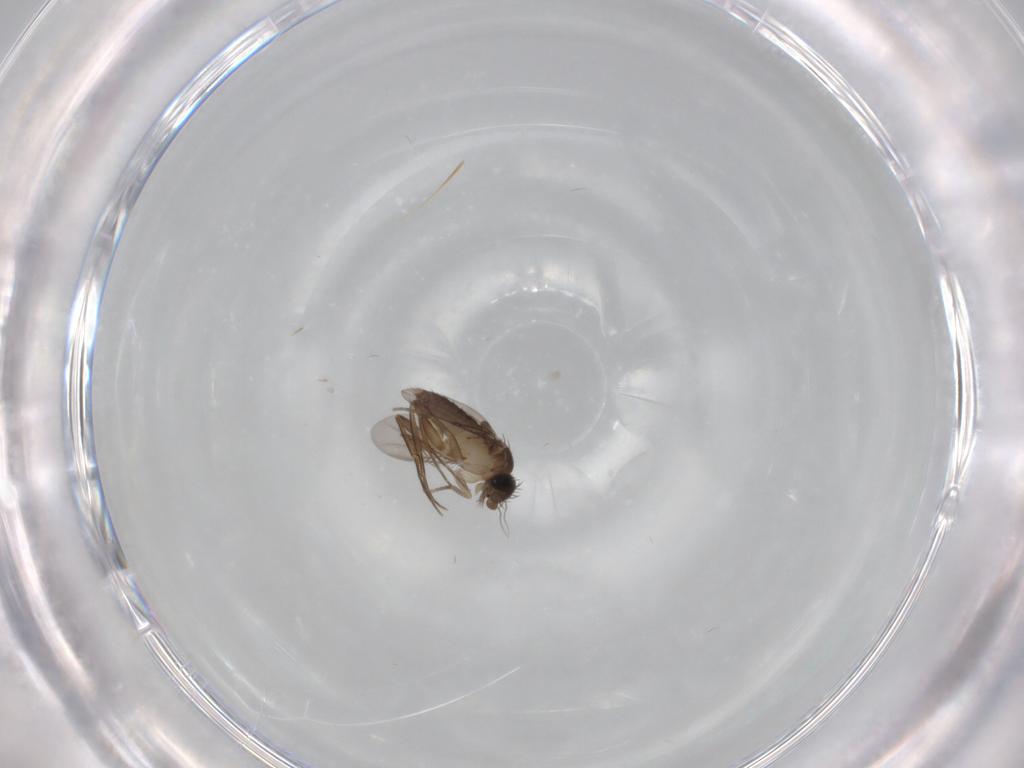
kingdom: Animalia
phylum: Arthropoda
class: Insecta
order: Diptera
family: Phoridae
